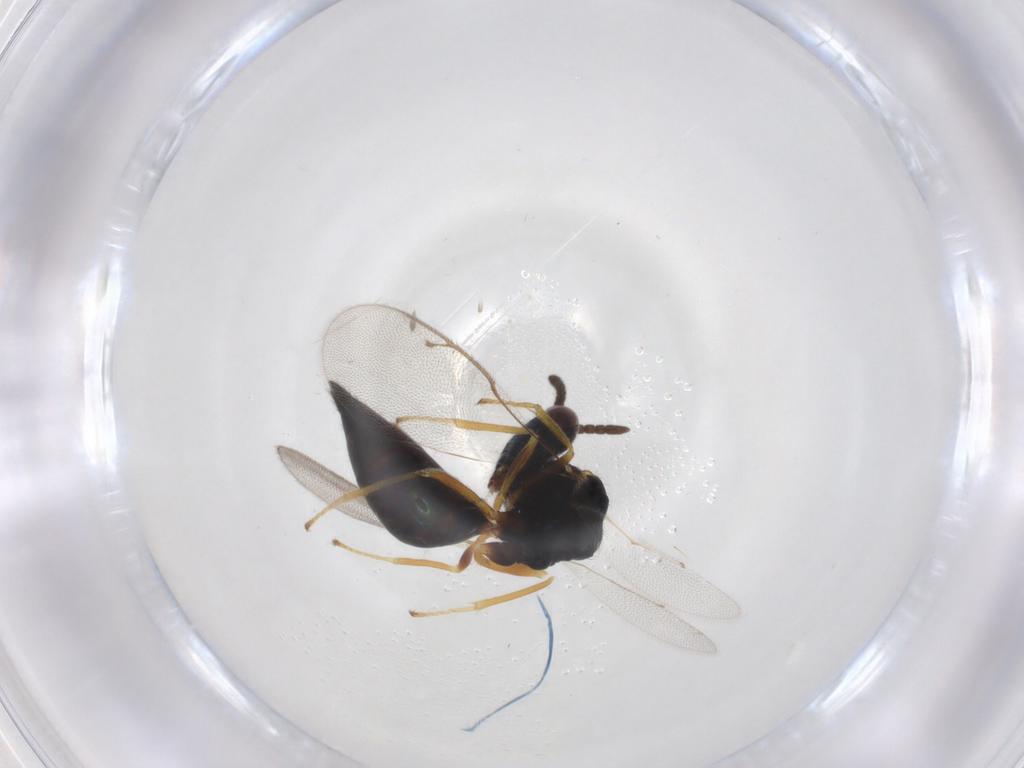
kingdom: Animalia
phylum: Arthropoda
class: Insecta
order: Hymenoptera
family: Pteromalidae
